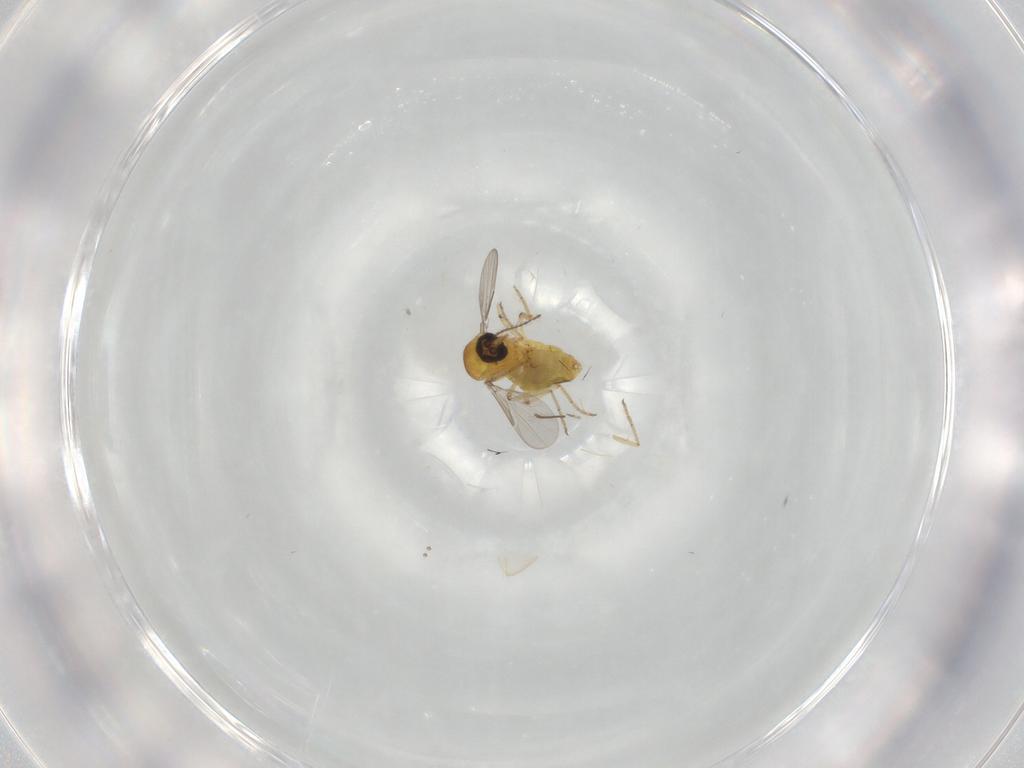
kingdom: Animalia
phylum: Arthropoda
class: Insecta
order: Diptera
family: Ceratopogonidae
